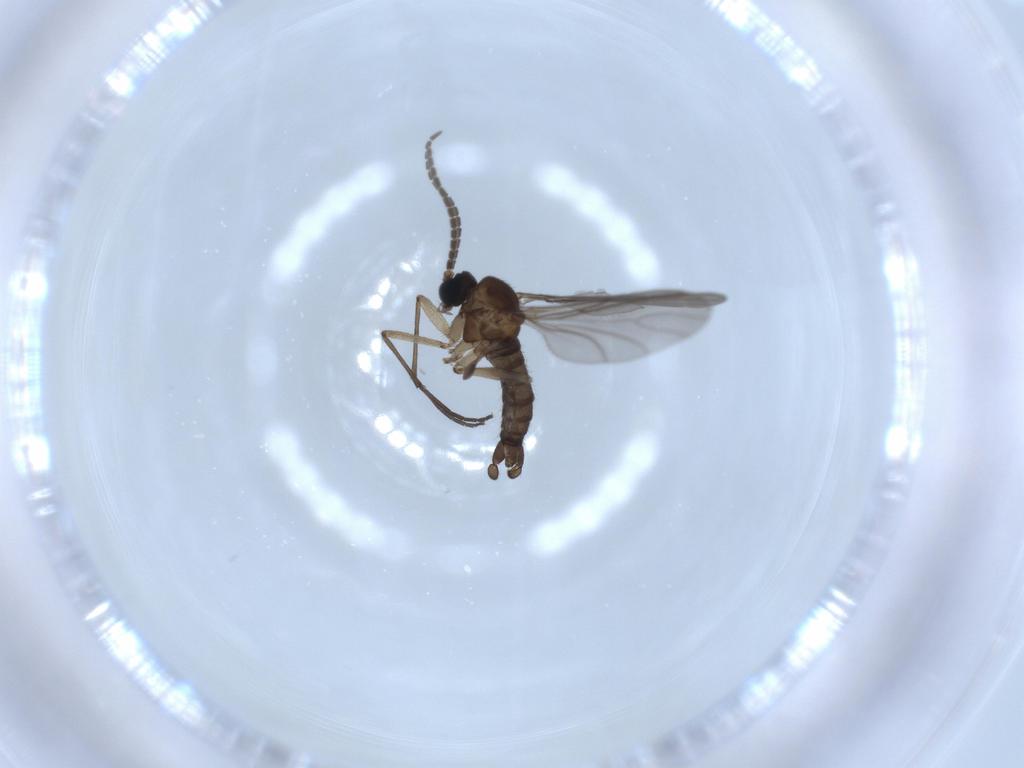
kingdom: Animalia
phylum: Arthropoda
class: Insecta
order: Diptera
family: Sciaridae
